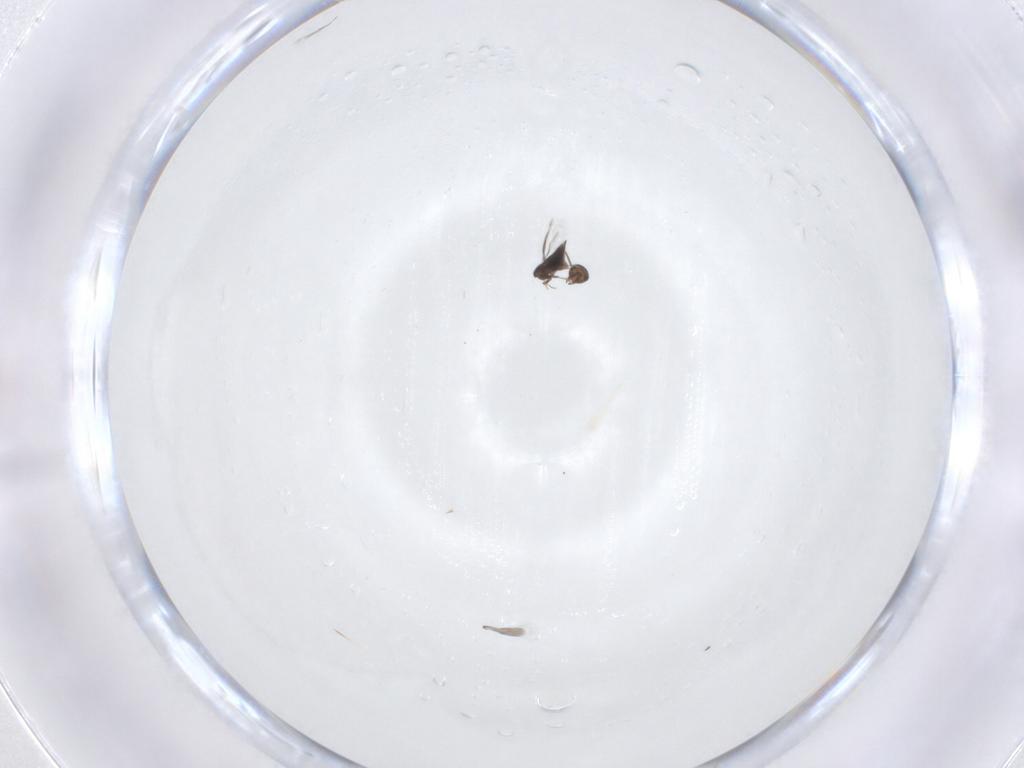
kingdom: Animalia
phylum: Arthropoda
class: Insecta
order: Hymenoptera
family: Signiphoridae
